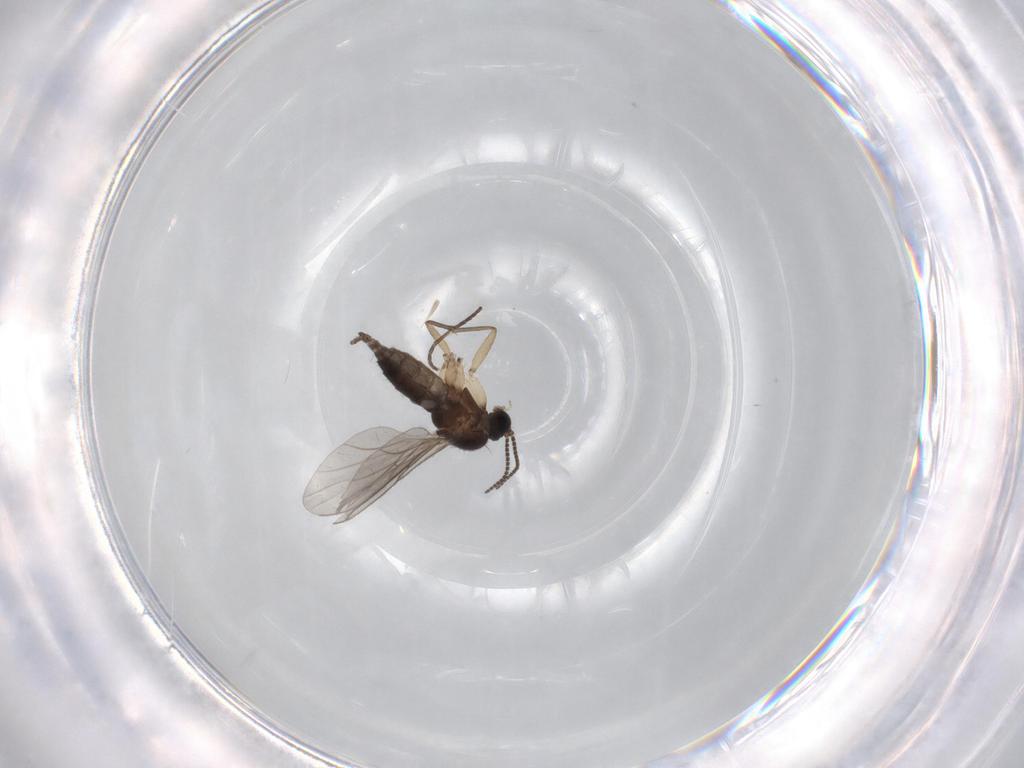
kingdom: Animalia
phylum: Arthropoda
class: Insecta
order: Diptera
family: Sciaridae
